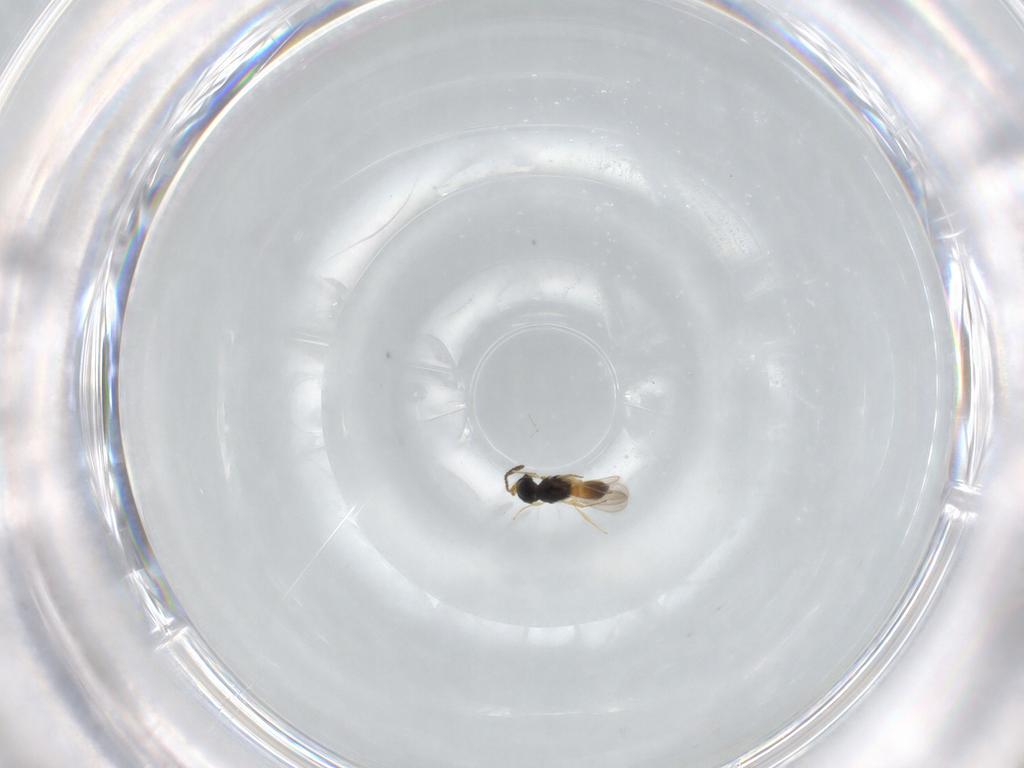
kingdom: Animalia
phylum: Arthropoda
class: Insecta
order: Hymenoptera
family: Scelionidae
